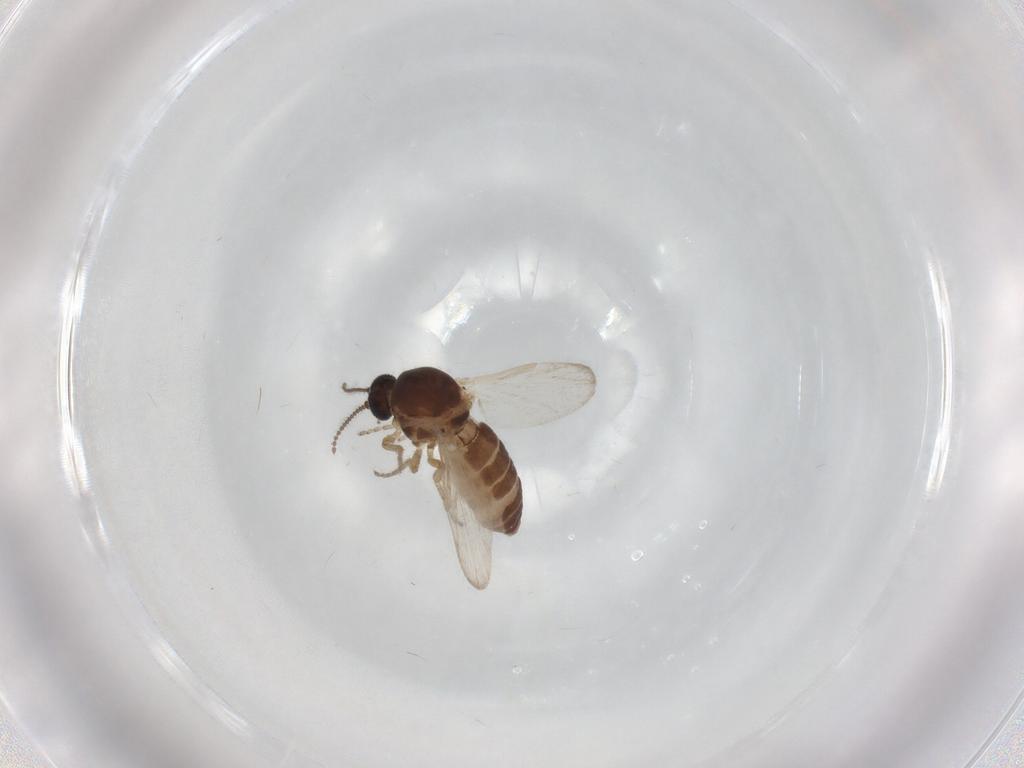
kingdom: Animalia
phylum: Arthropoda
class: Insecta
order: Diptera
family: Ceratopogonidae
